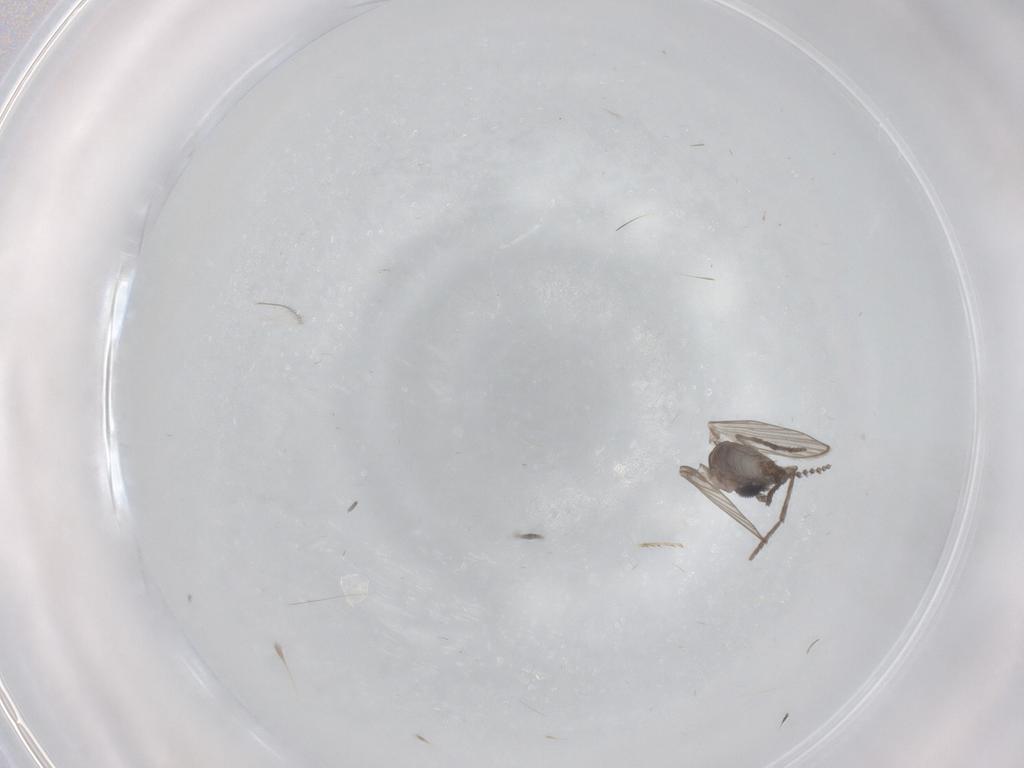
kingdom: Animalia
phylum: Arthropoda
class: Insecta
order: Diptera
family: Psychodidae
